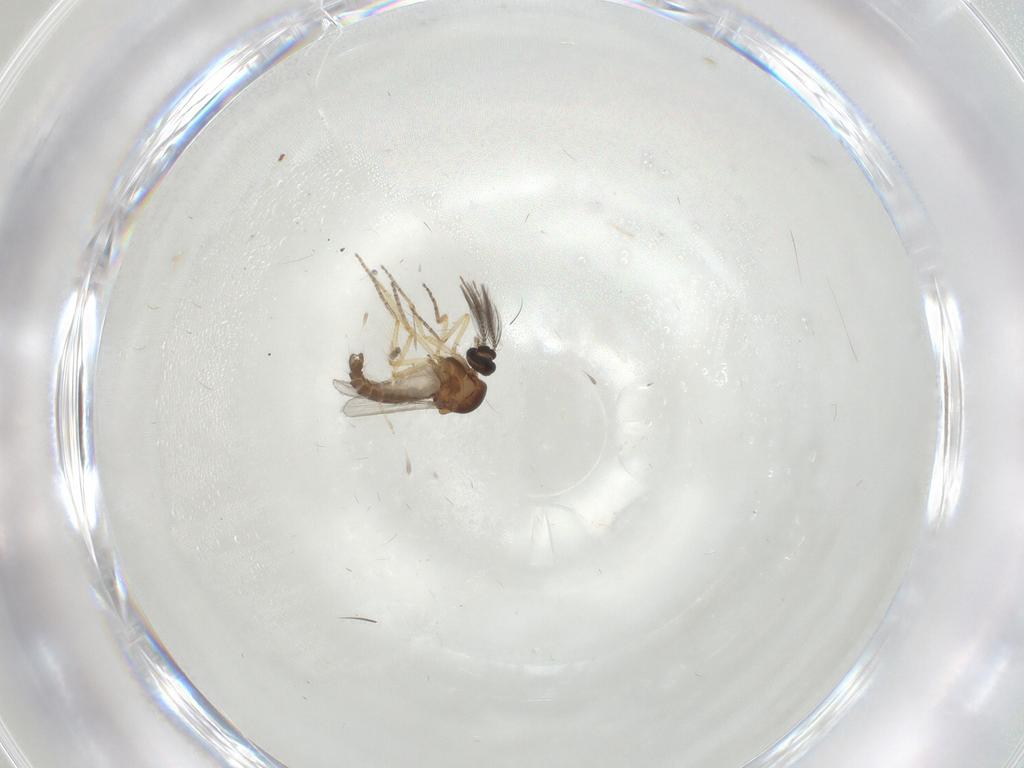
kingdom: Animalia
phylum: Arthropoda
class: Insecta
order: Diptera
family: Ceratopogonidae
